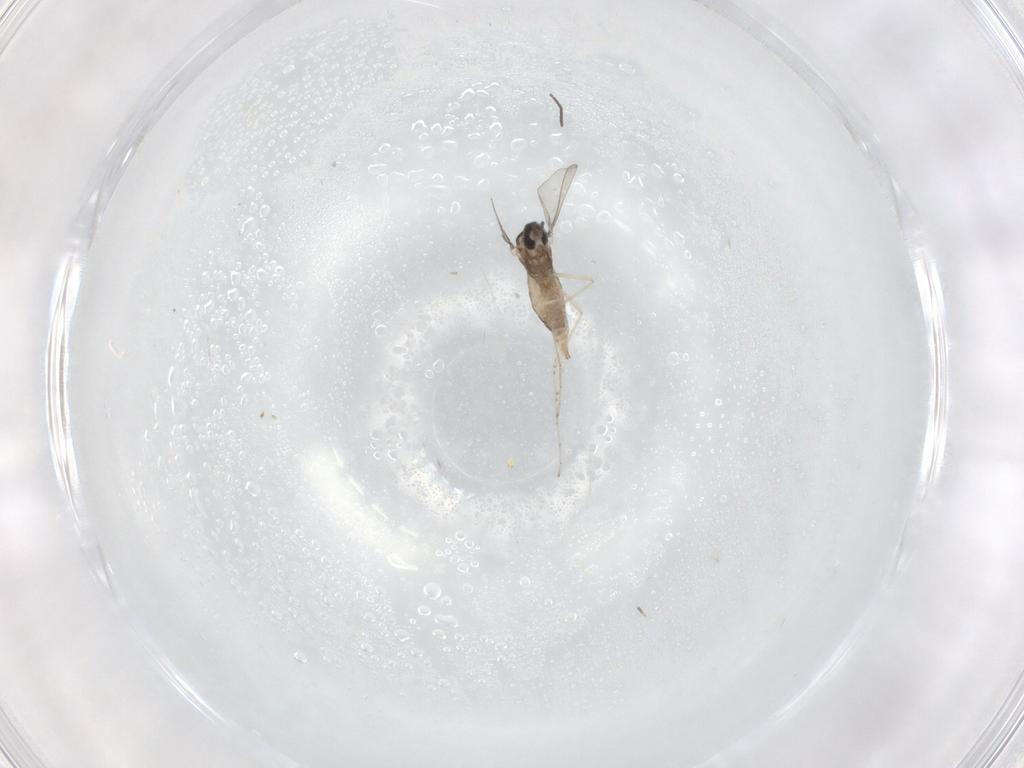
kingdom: Animalia
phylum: Arthropoda
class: Insecta
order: Diptera
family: Cecidomyiidae
